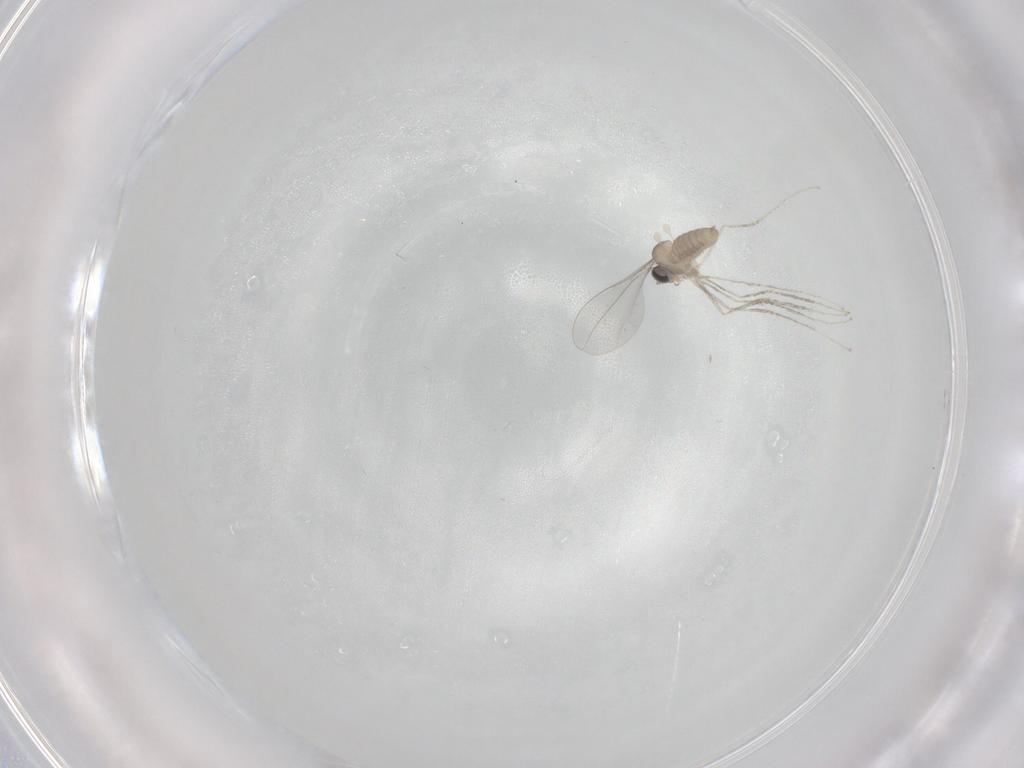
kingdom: Animalia
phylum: Arthropoda
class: Insecta
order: Diptera
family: Cecidomyiidae
